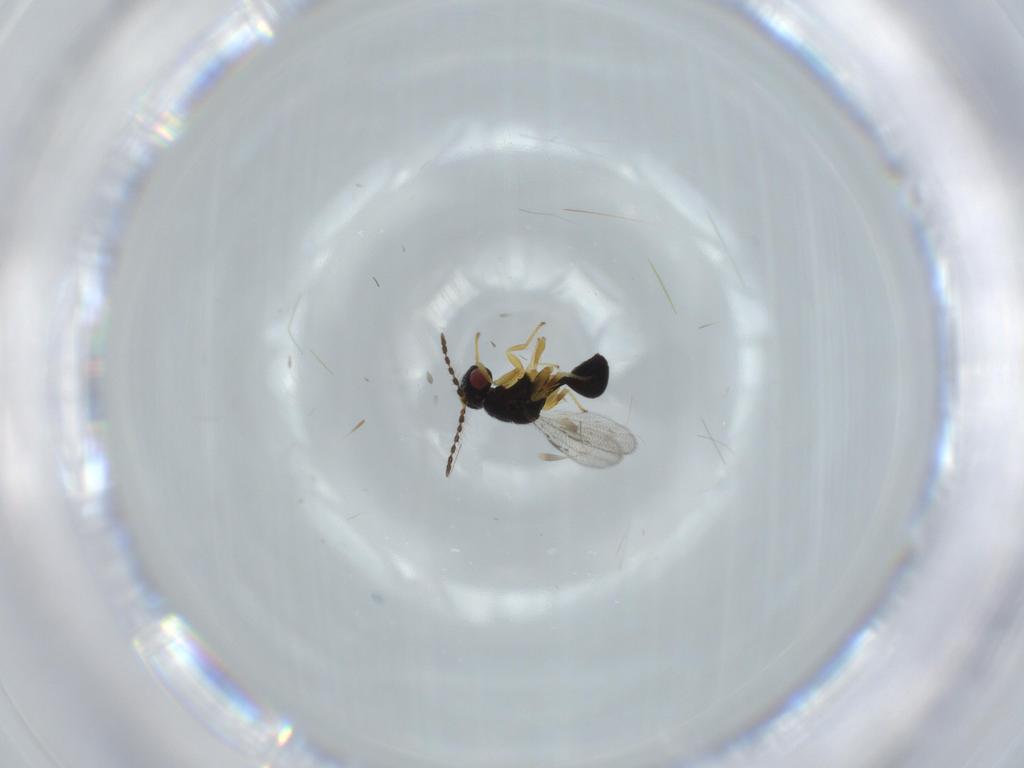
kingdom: Animalia
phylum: Arthropoda
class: Insecta
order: Hymenoptera
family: Eurytomidae
